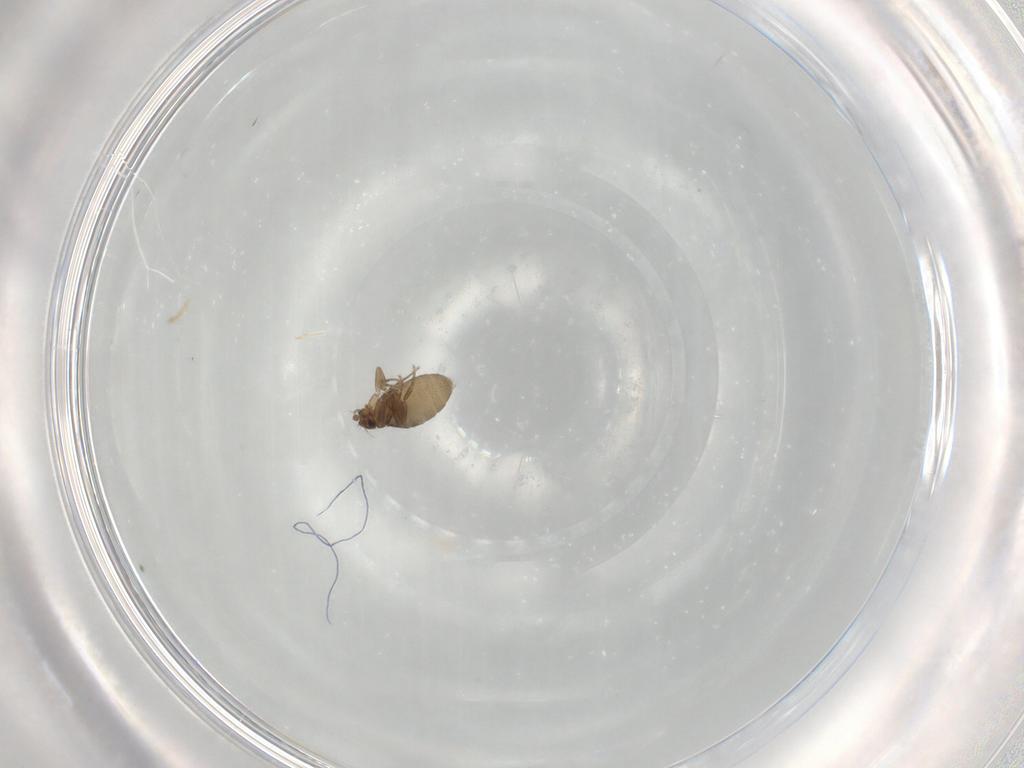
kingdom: Animalia
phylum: Arthropoda
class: Insecta
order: Diptera
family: Phoridae
